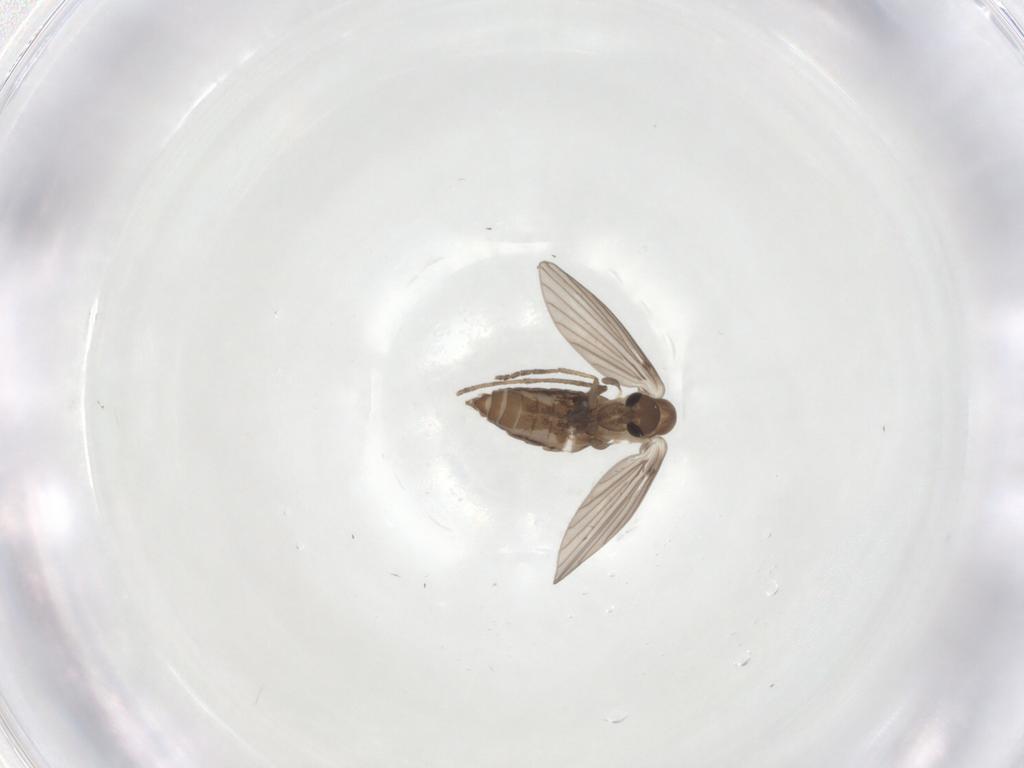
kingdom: Animalia
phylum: Arthropoda
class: Insecta
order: Diptera
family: Psychodidae
